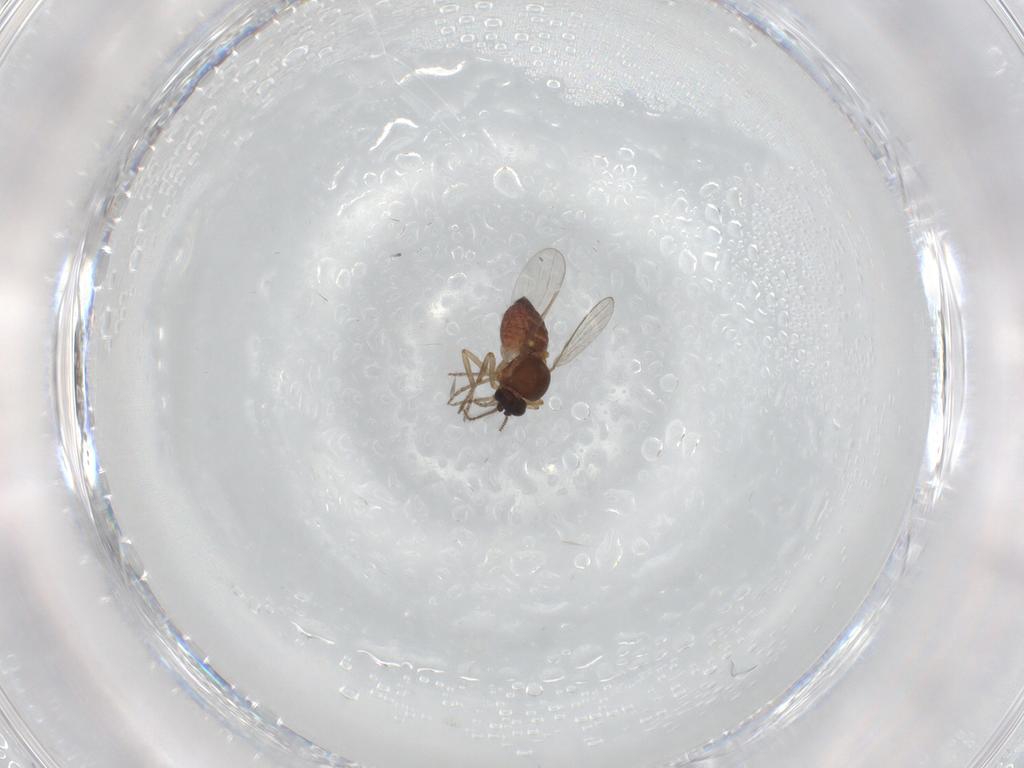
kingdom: Animalia
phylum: Arthropoda
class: Insecta
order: Diptera
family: Ceratopogonidae
